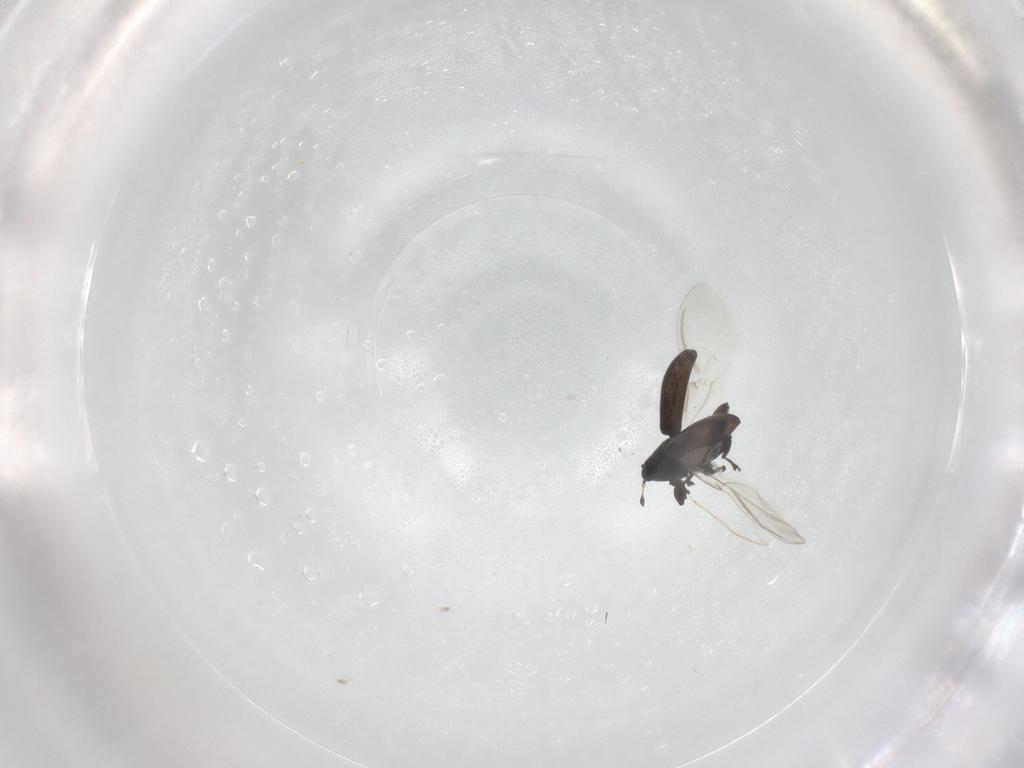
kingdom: Animalia
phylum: Arthropoda
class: Insecta
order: Coleoptera
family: Curculionidae
